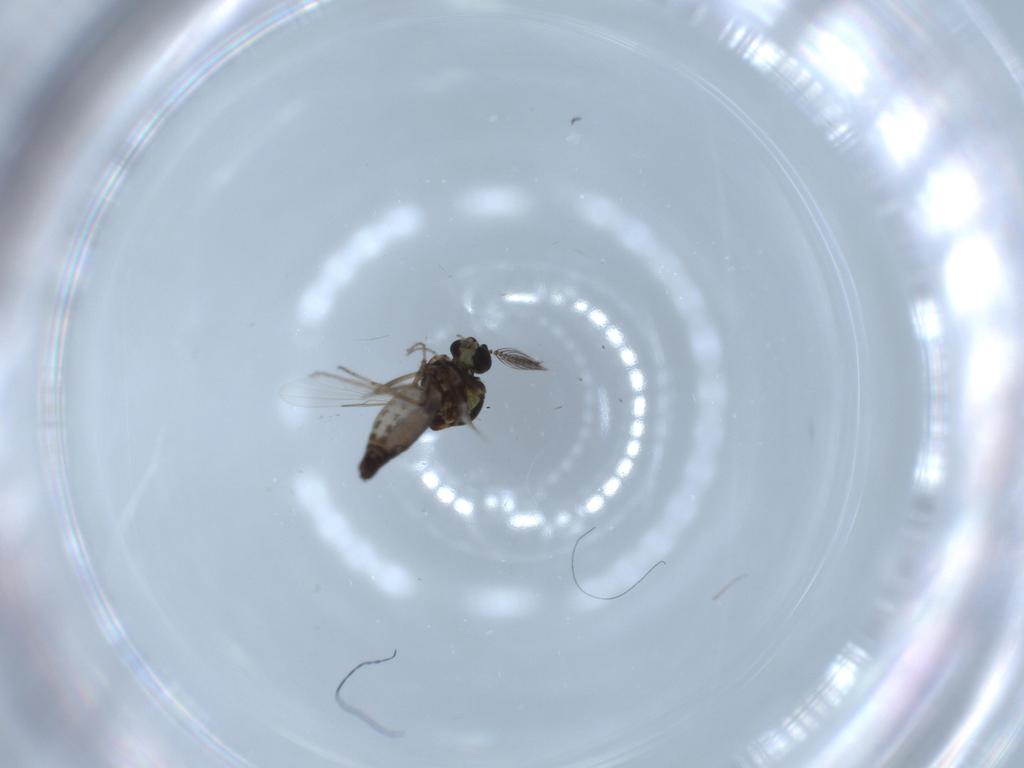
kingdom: Animalia
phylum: Arthropoda
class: Insecta
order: Diptera
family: Ceratopogonidae
